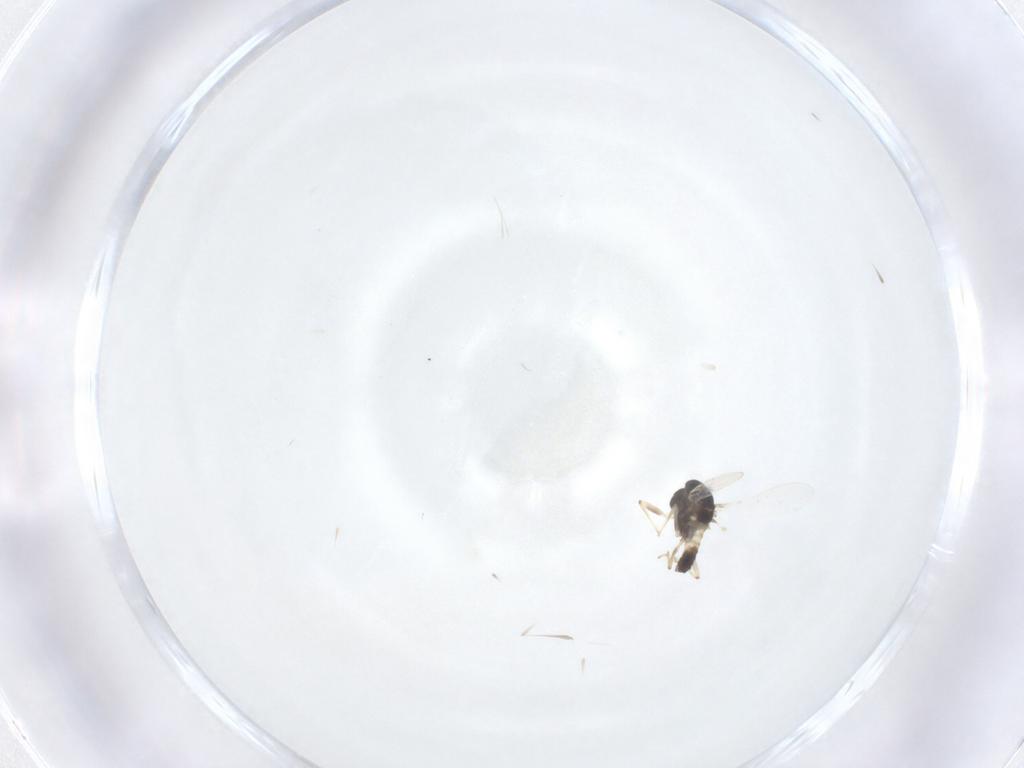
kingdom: Animalia
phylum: Arthropoda
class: Insecta
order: Diptera
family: Chironomidae
